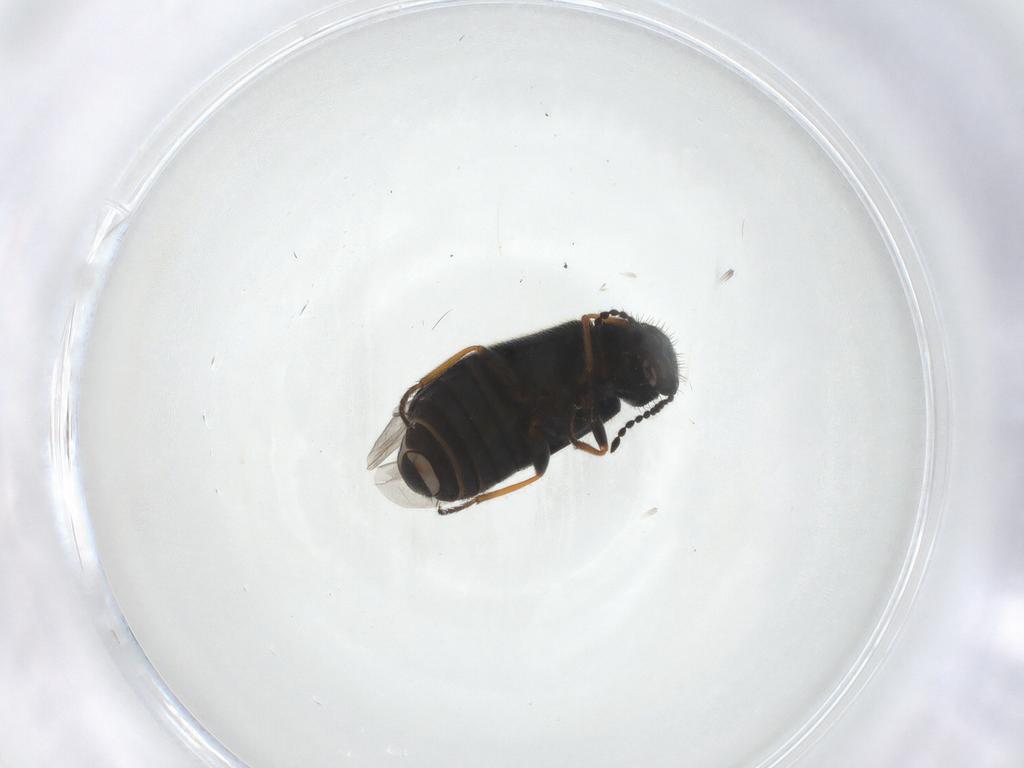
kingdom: Animalia
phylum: Arthropoda
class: Insecta
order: Coleoptera
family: Melyridae
